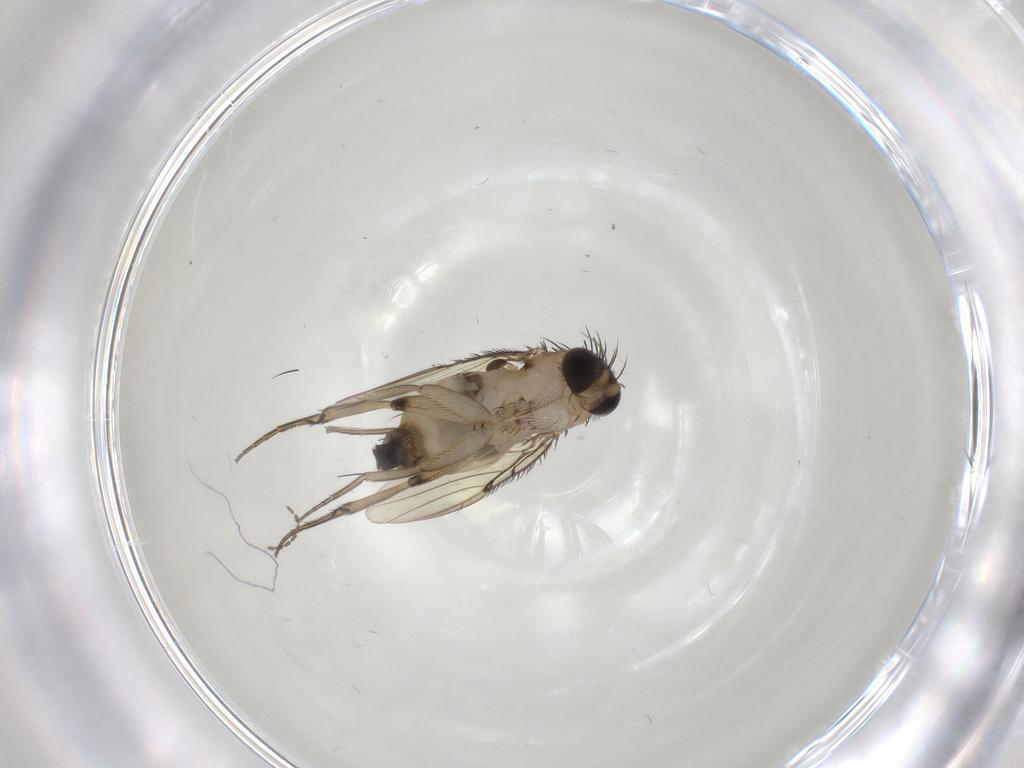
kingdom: Animalia
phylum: Arthropoda
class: Insecta
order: Diptera
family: Phoridae
